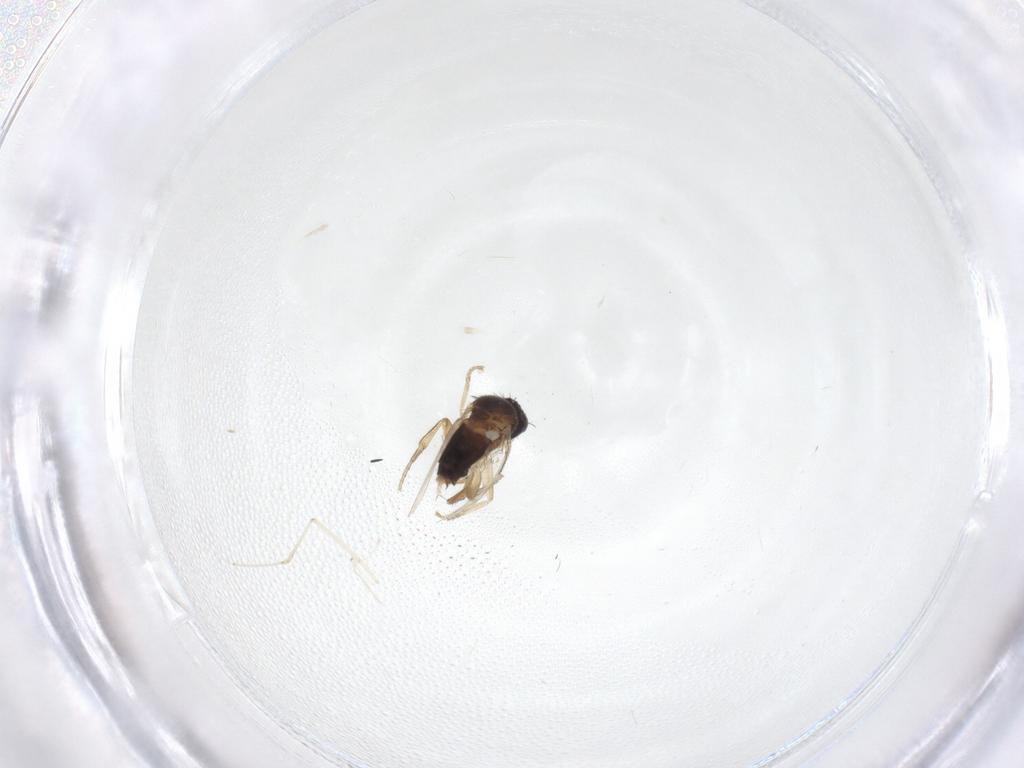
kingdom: Animalia
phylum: Arthropoda
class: Insecta
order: Diptera
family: Cecidomyiidae
